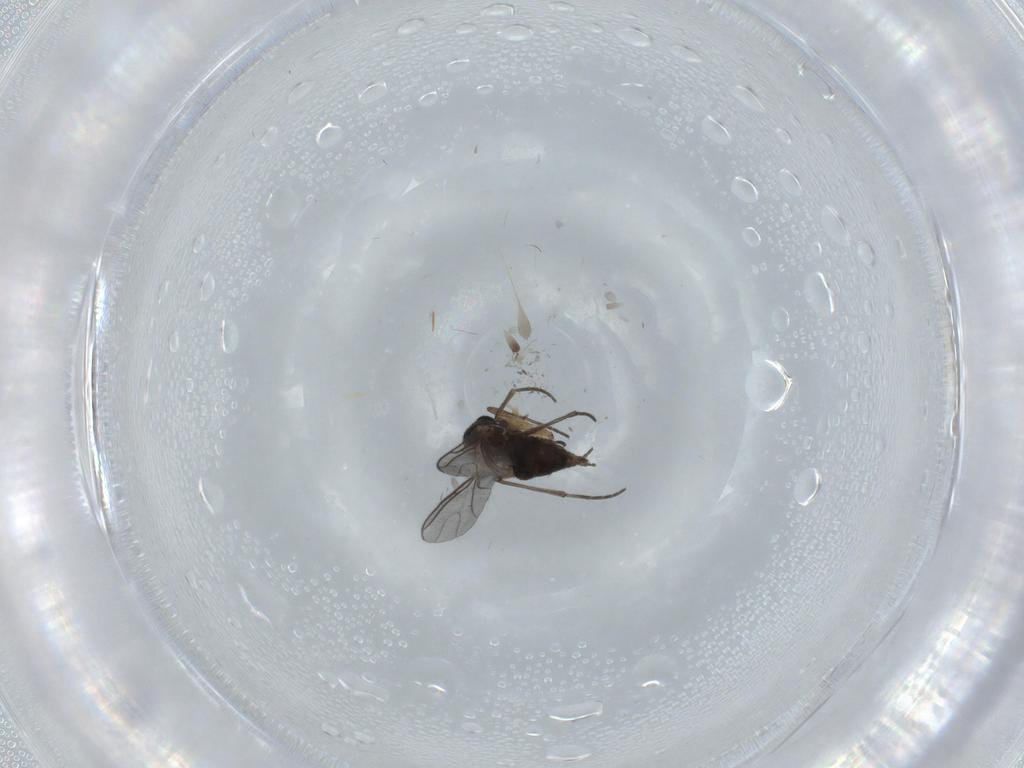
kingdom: Animalia
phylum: Arthropoda
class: Insecta
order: Diptera
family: Sciaridae
